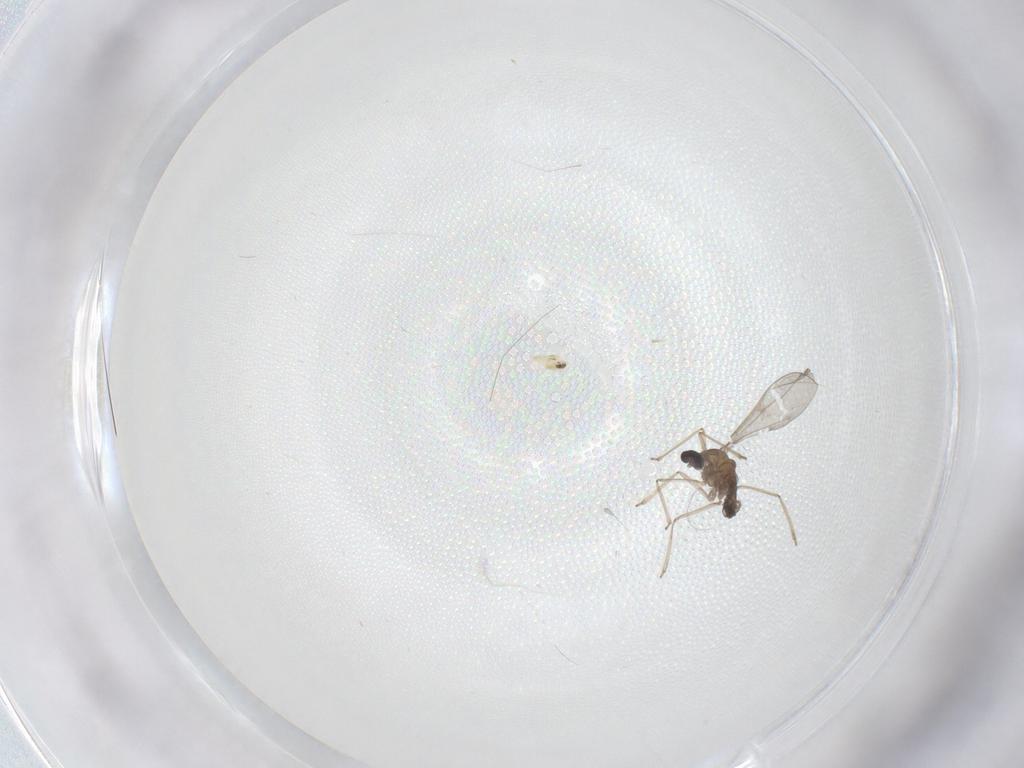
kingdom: Animalia
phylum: Arthropoda
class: Insecta
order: Diptera
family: Cecidomyiidae
